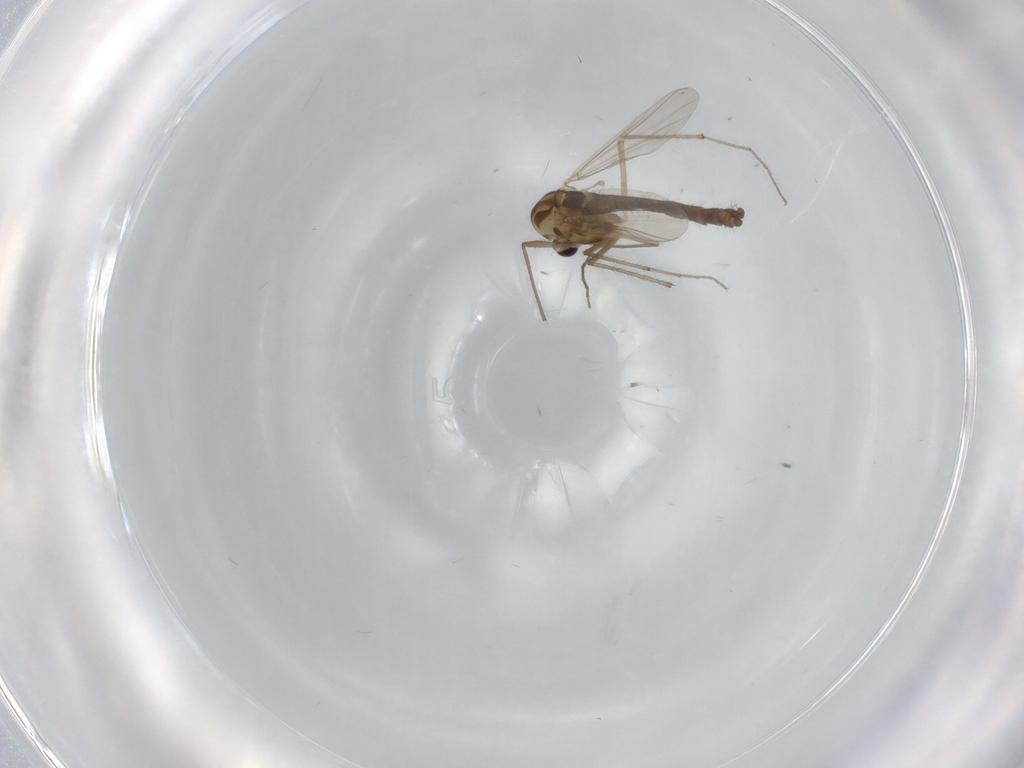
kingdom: Animalia
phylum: Arthropoda
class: Insecta
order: Diptera
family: Chironomidae
